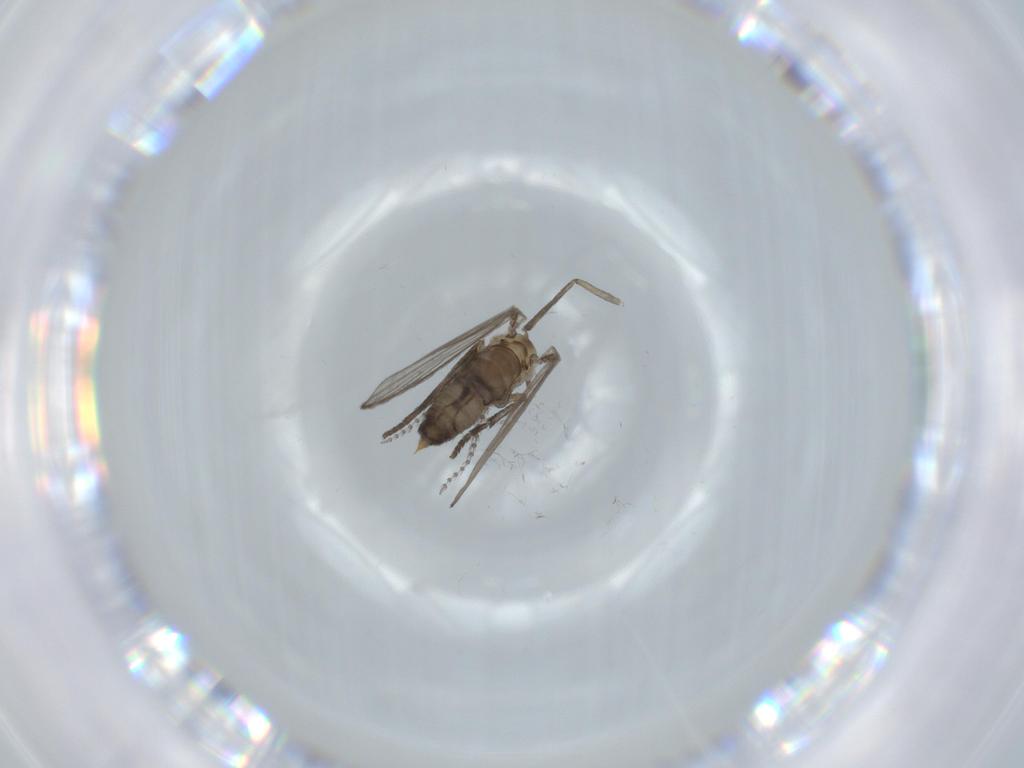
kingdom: Animalia
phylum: Arthropoda
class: Insecta
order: Diptera
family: Psychodidae
